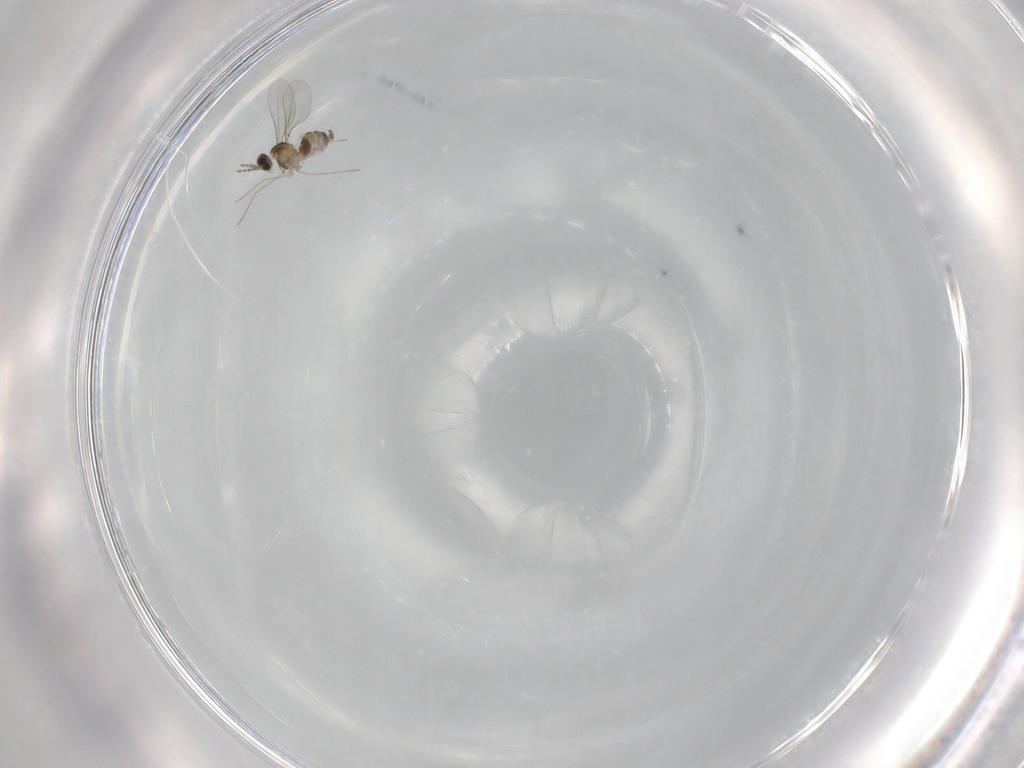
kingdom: Animalia
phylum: Arthropoda
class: Insecta
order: Diptera
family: Cecidomyiidae
